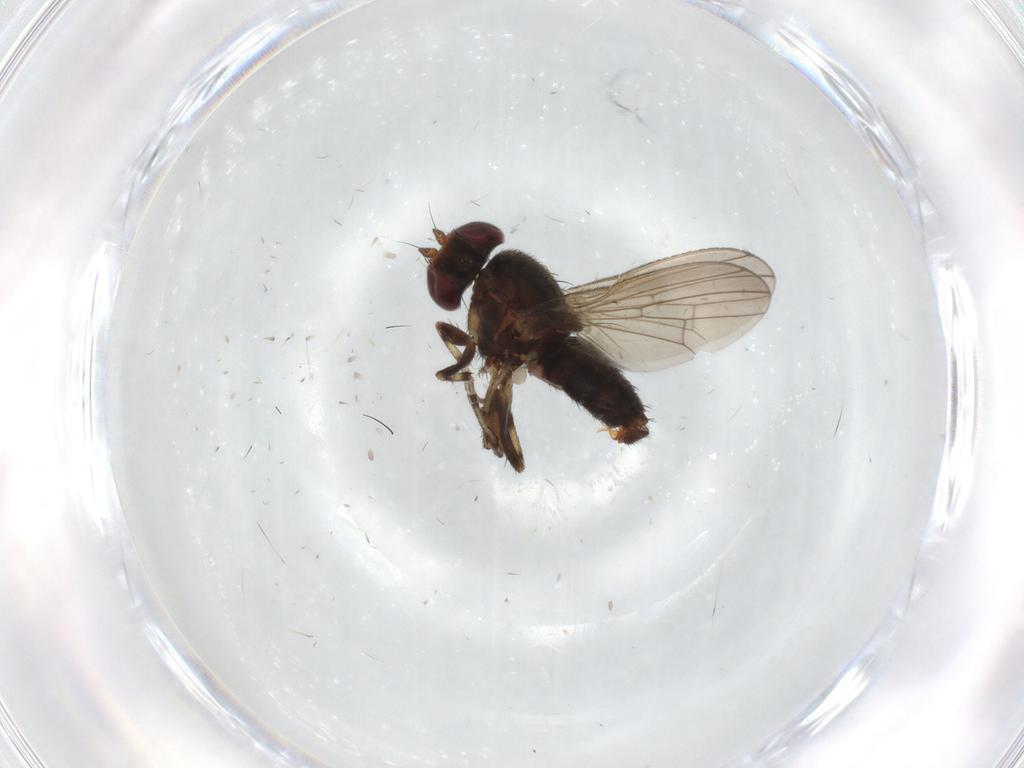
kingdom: Animalia
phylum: Arthropoda
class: Insecta
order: Diptera
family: Heleomyzidae
